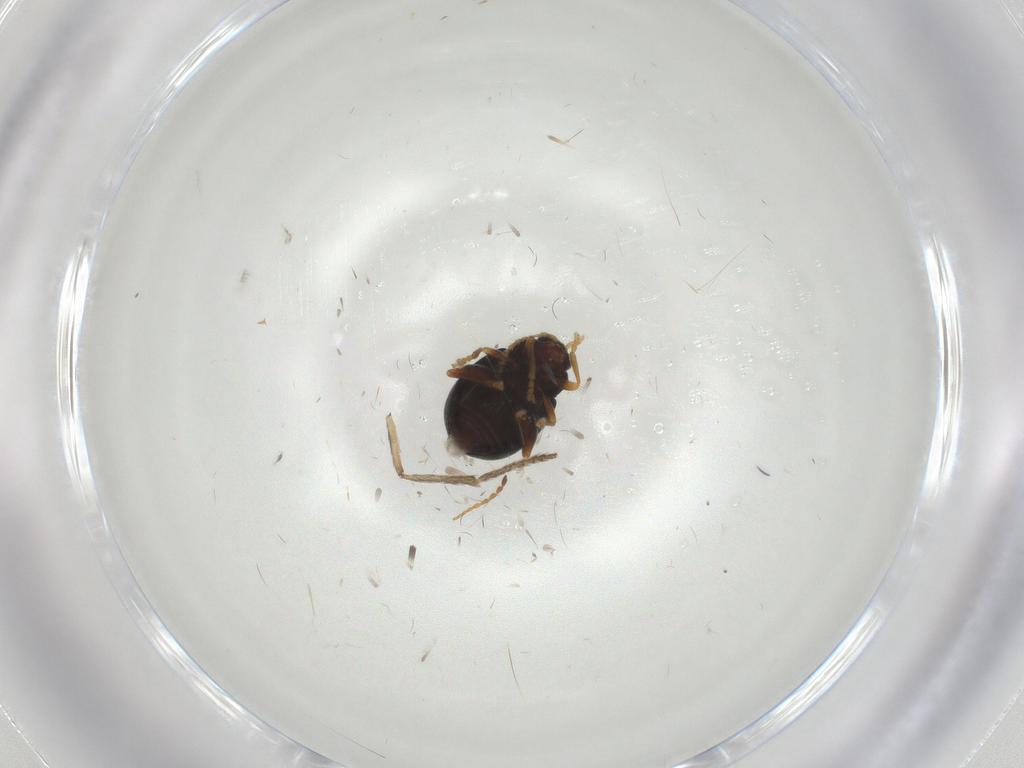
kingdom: Animalia
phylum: Arthropoda
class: Insecta
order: Coleoptera
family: Chrysomelidae
